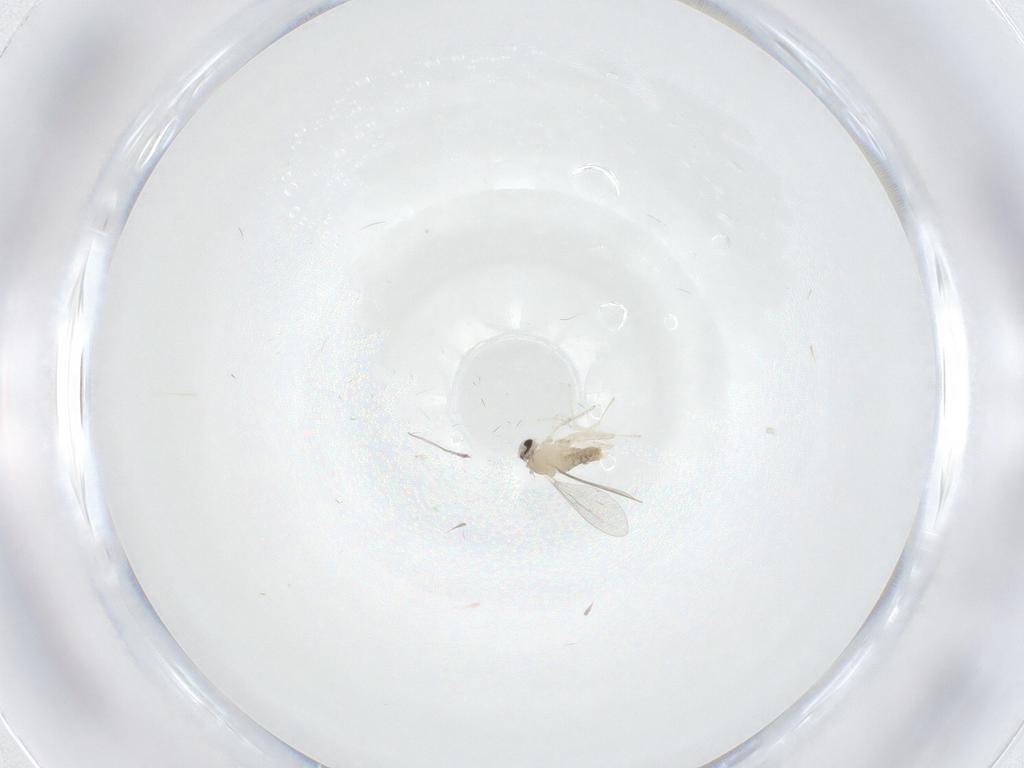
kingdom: Animalia
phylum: Arthropoda
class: Insecta
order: Diptera
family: Cecidomyiidae
